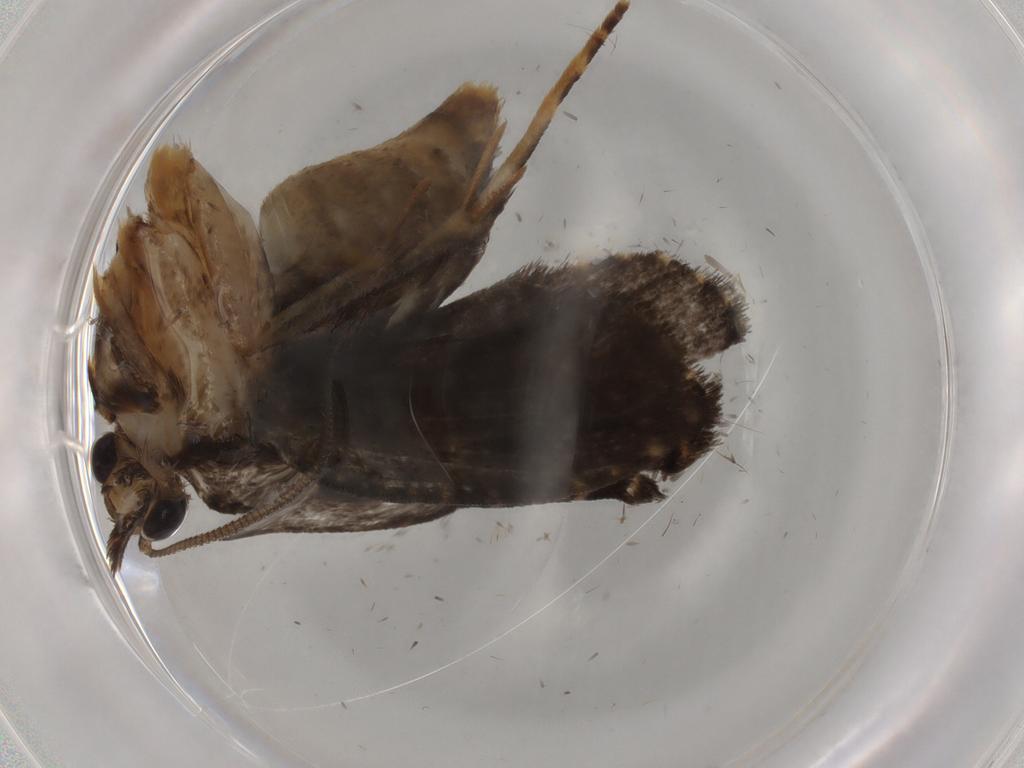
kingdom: Animalia
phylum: Arthropoda
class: Insecta
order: Lepidoptera
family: Tineidae
